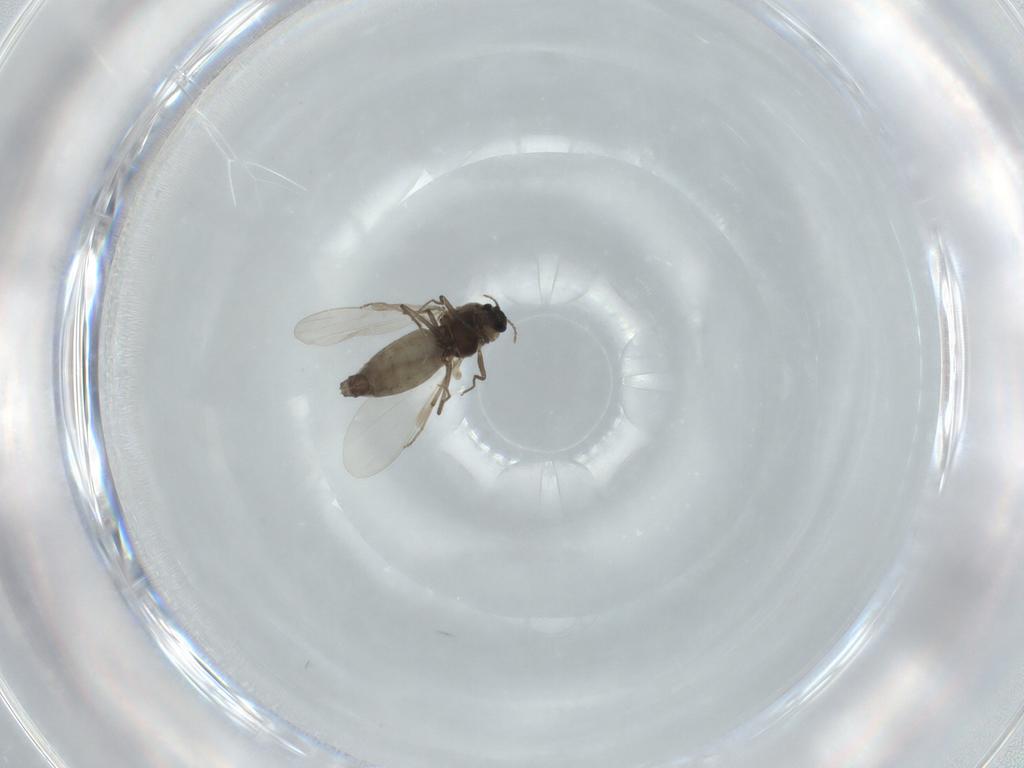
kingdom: Animalia
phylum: Arthropoda
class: Insecta
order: Diptera
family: Chironomidae
